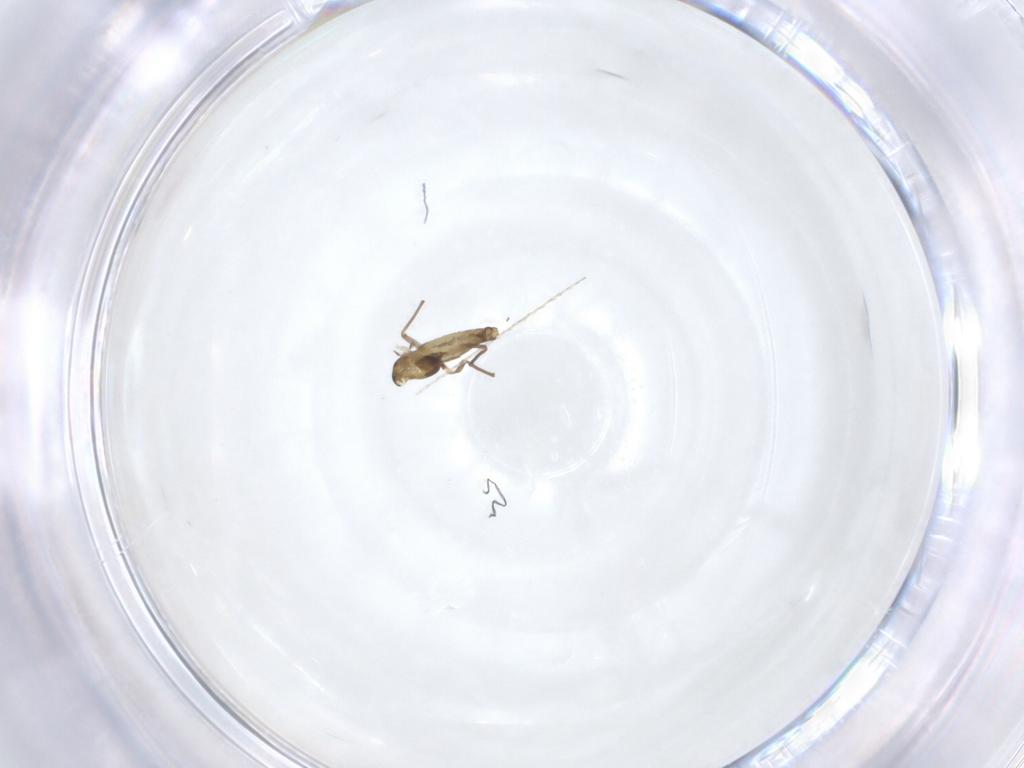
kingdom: Animalia
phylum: Arthropoda
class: Insecta
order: Diptera
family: Chironomidae
